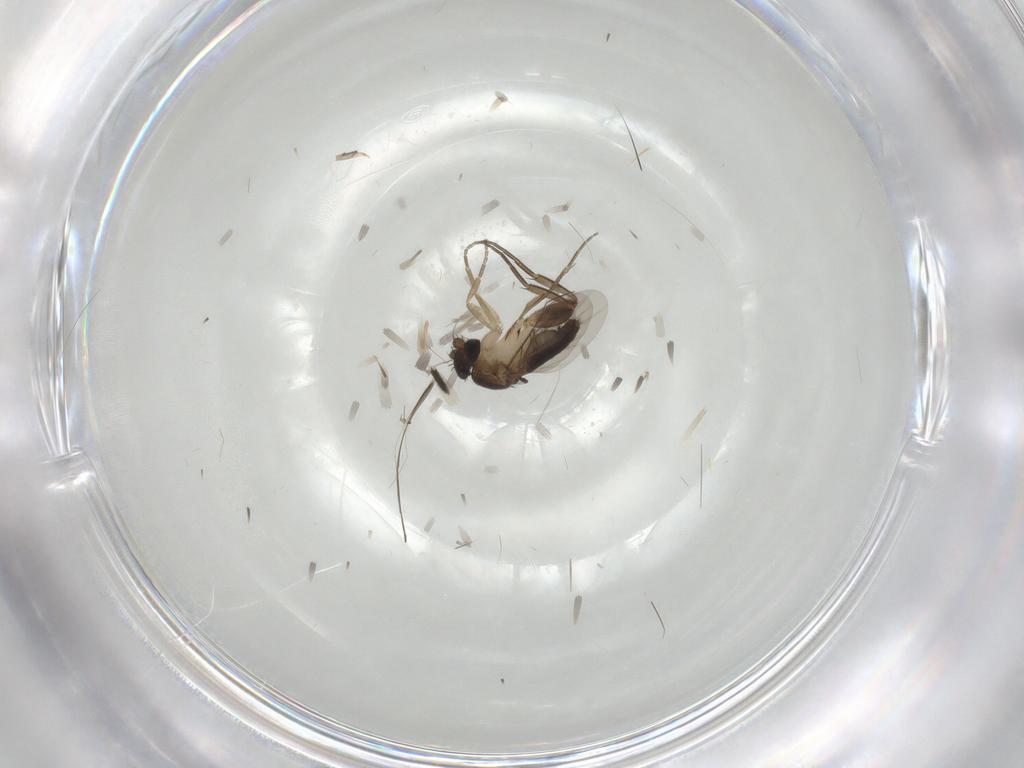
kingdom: Animalia
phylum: Arthropoda
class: Insecta
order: Diptera
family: Phoridae
